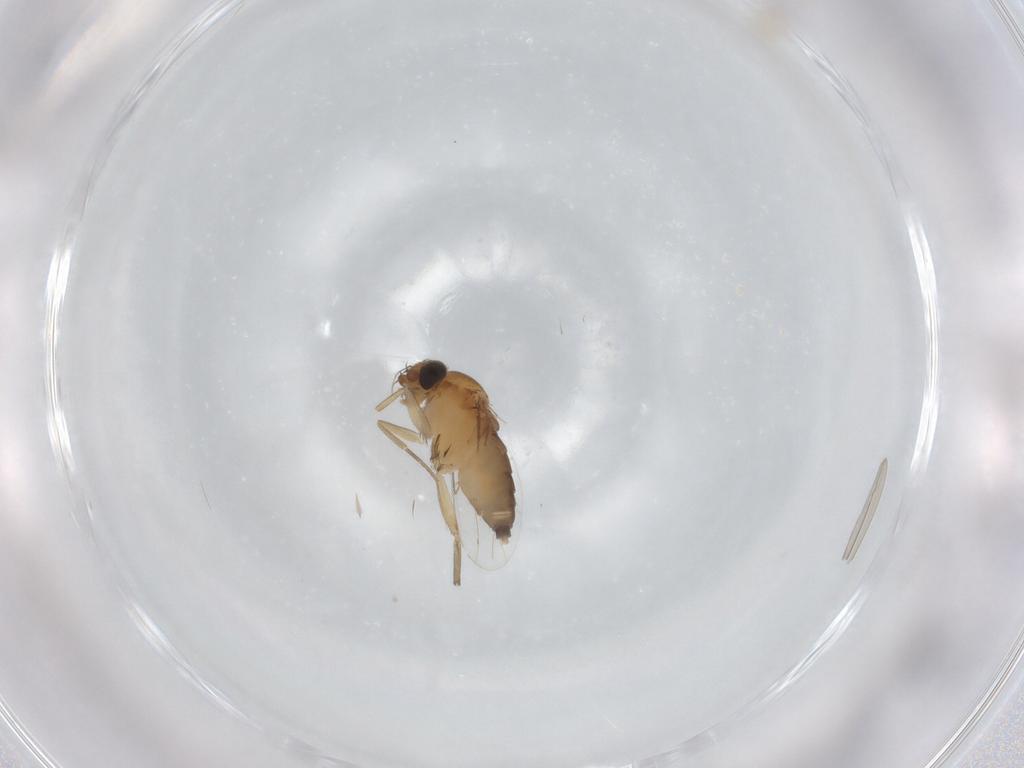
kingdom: Animalia
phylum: Arthropoda
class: Insecta
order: Diptera
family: Phoridae
